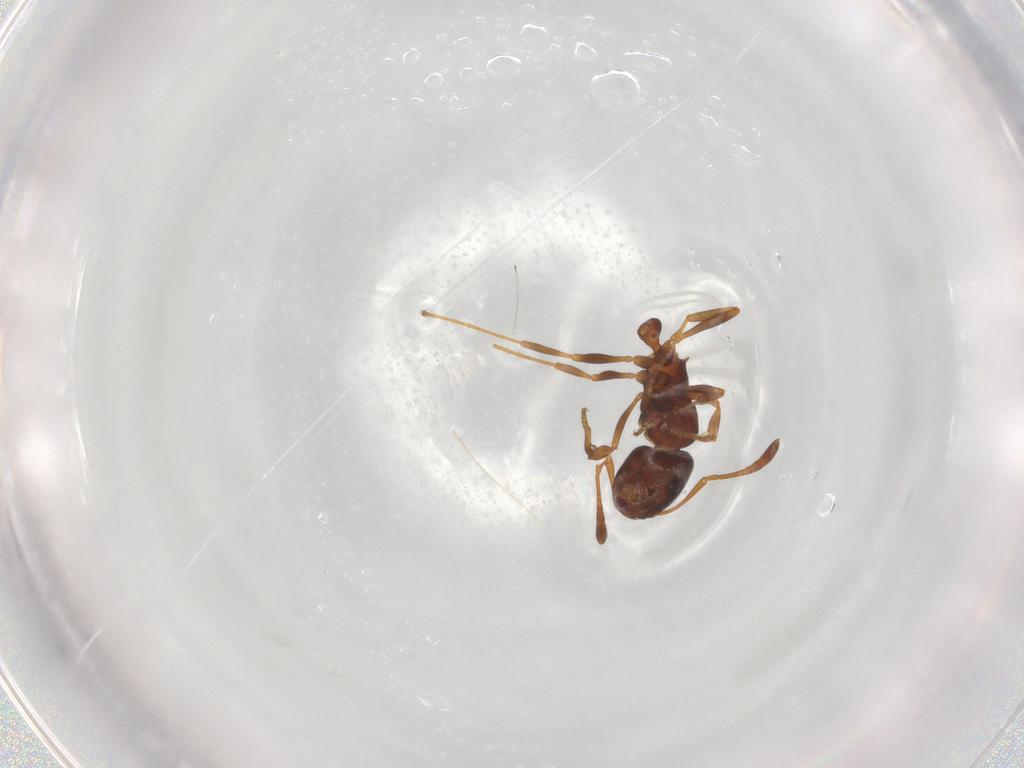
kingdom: Animalia
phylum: Arthropoda
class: Insecta
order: Hymenoptera
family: Formicidae
